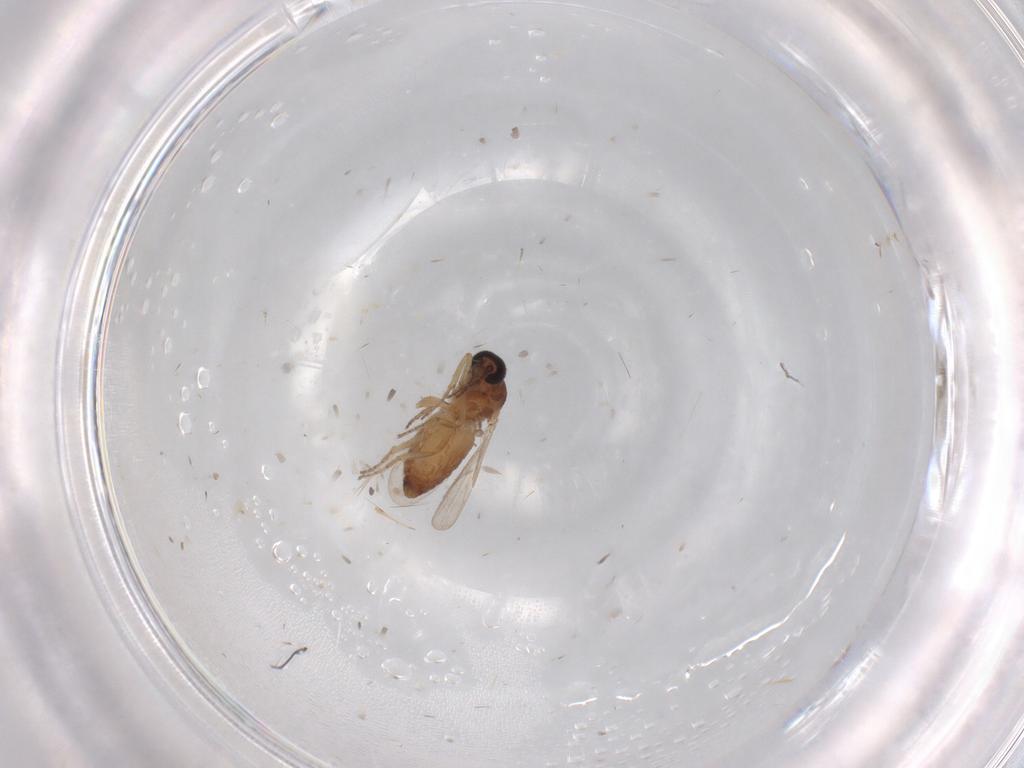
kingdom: Animalia
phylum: Arthropoda
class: Insecta
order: Diptera
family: Ceratopogonidae
